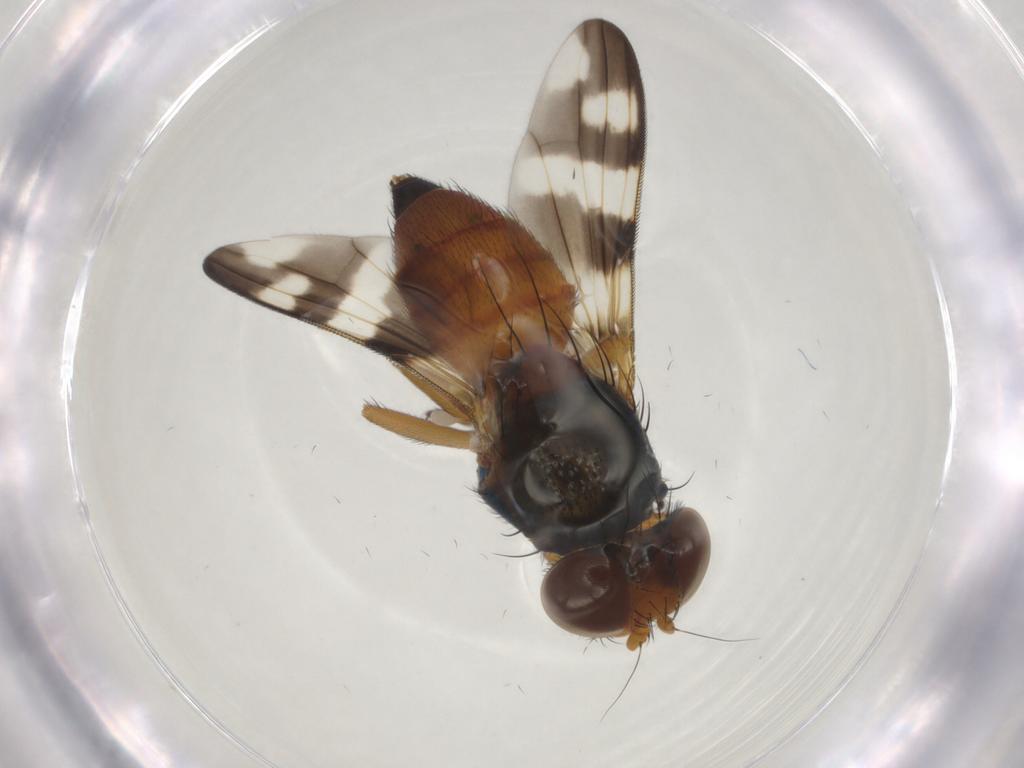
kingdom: Animalia
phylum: Arthropoda
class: Insecta
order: Diptera
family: Ulidiidae
